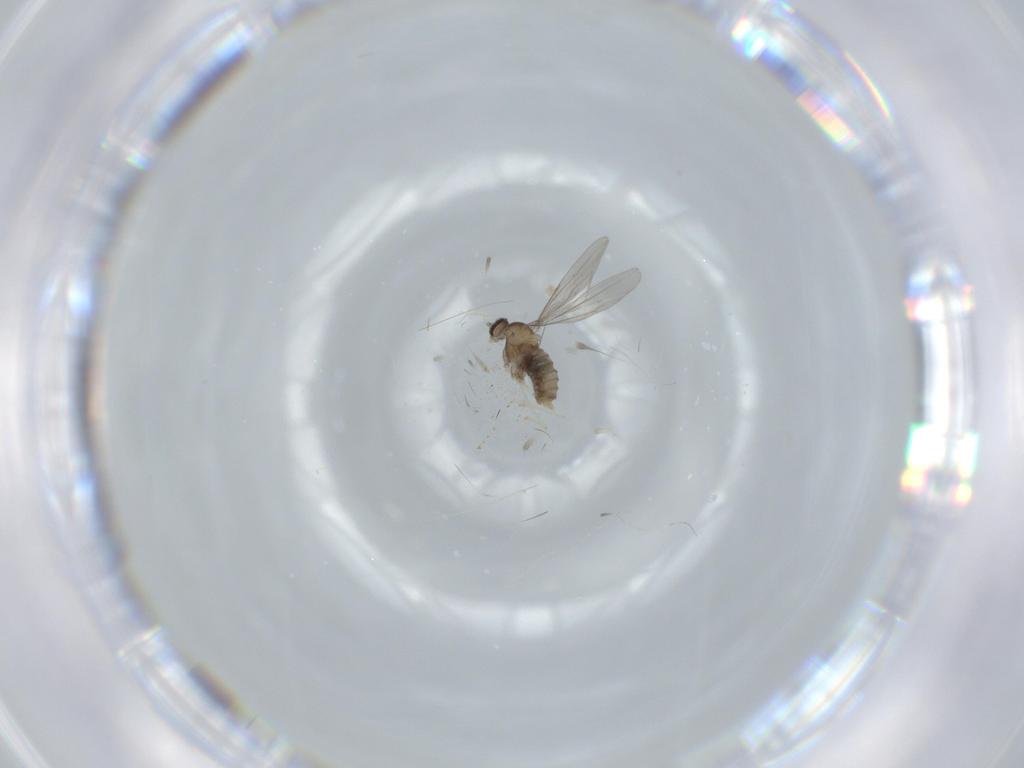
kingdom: Animalia
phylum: Arthropoda
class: Insecta
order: Diptera
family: Cecidomyiidae
